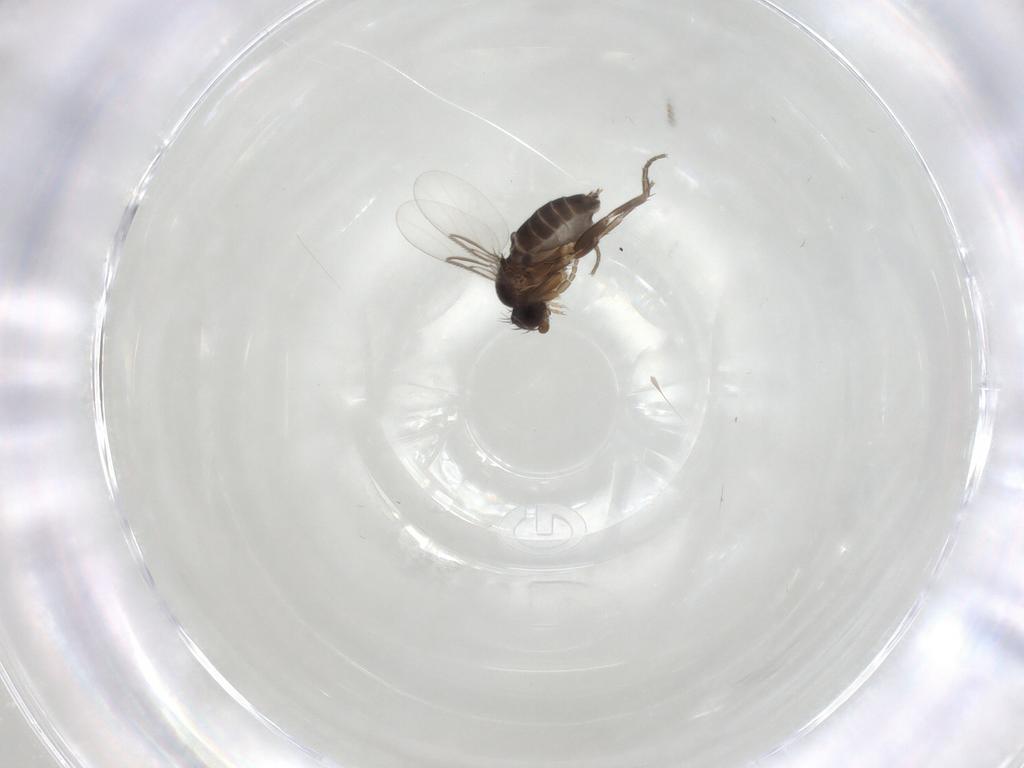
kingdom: Animalia
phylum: Arthropoda
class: Insecta
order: Diptera
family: Phoridae
